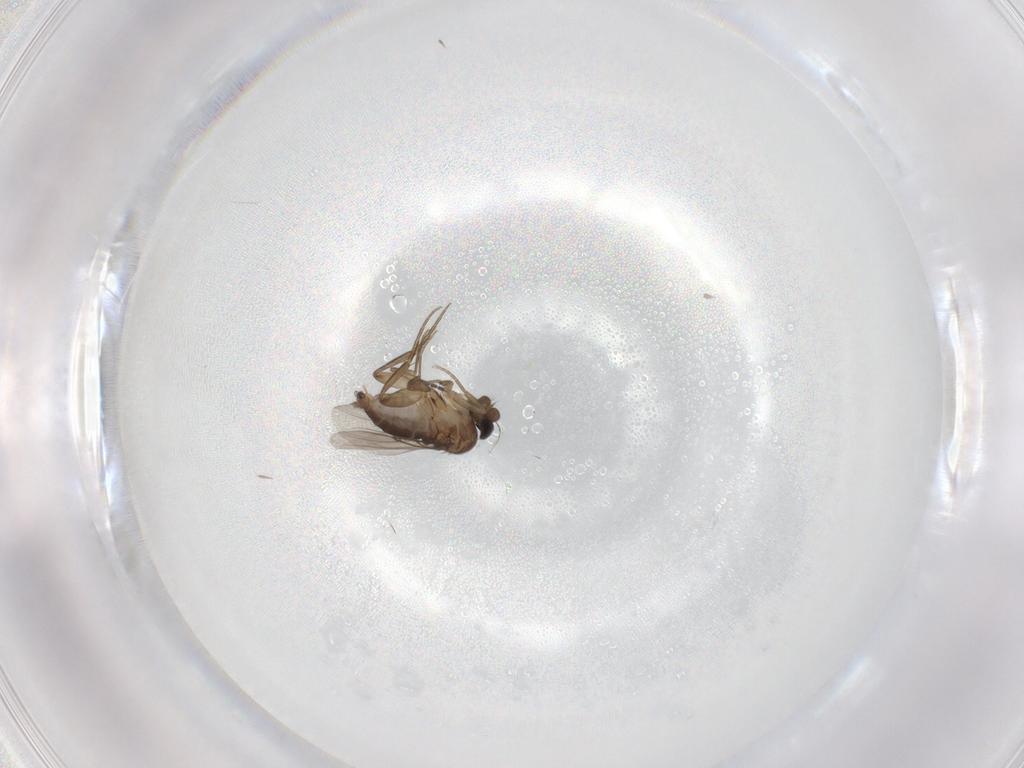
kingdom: Animalia
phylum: Arthropoda
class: Insecta
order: Diptera
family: Phoridae
